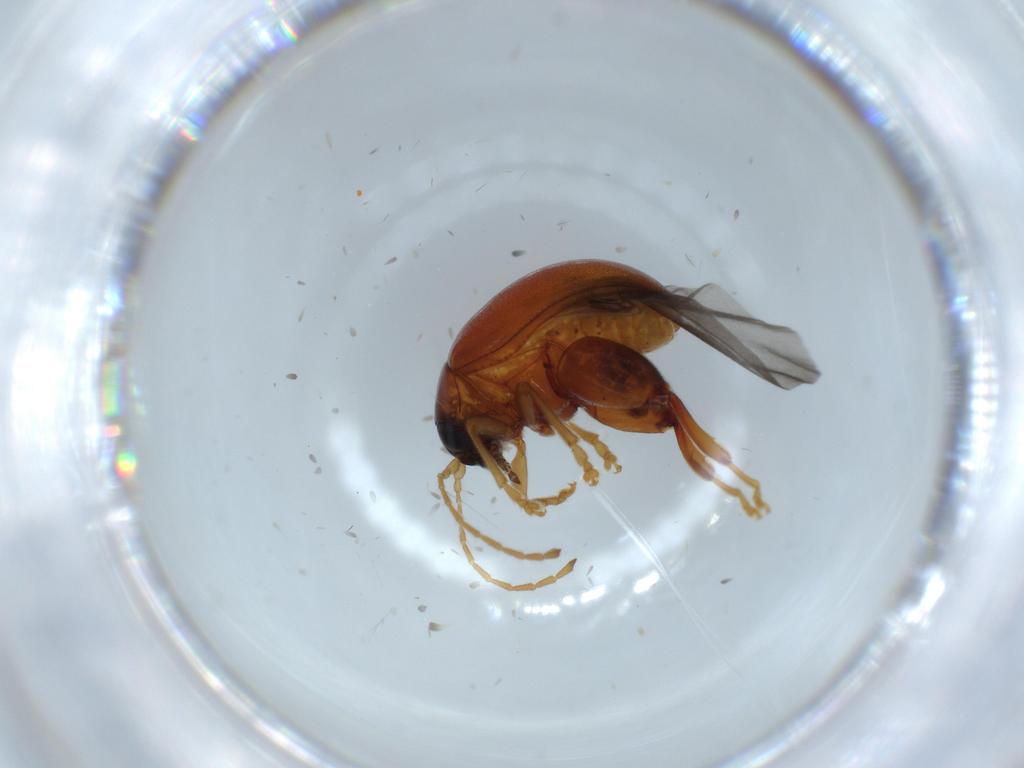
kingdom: Animalia
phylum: Arthropoda
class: Insecta
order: Coleoptera
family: Chrysomelidae
